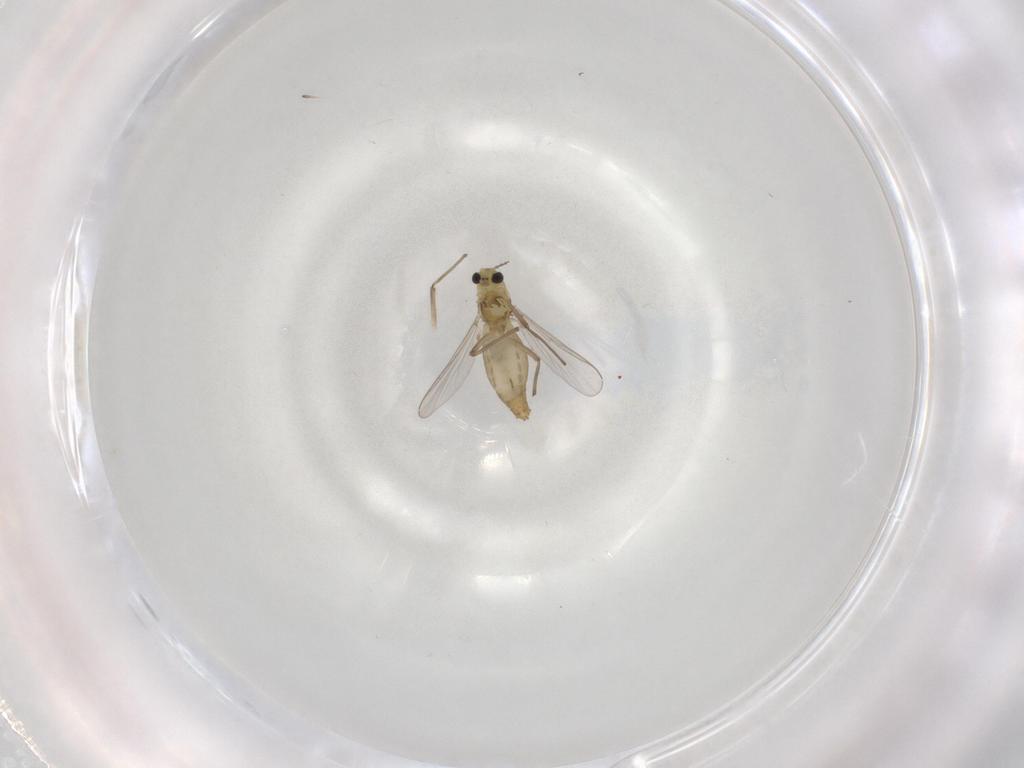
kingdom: Animalia
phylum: Arthropoda
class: Insecta
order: Diptera
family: Chironomidae
